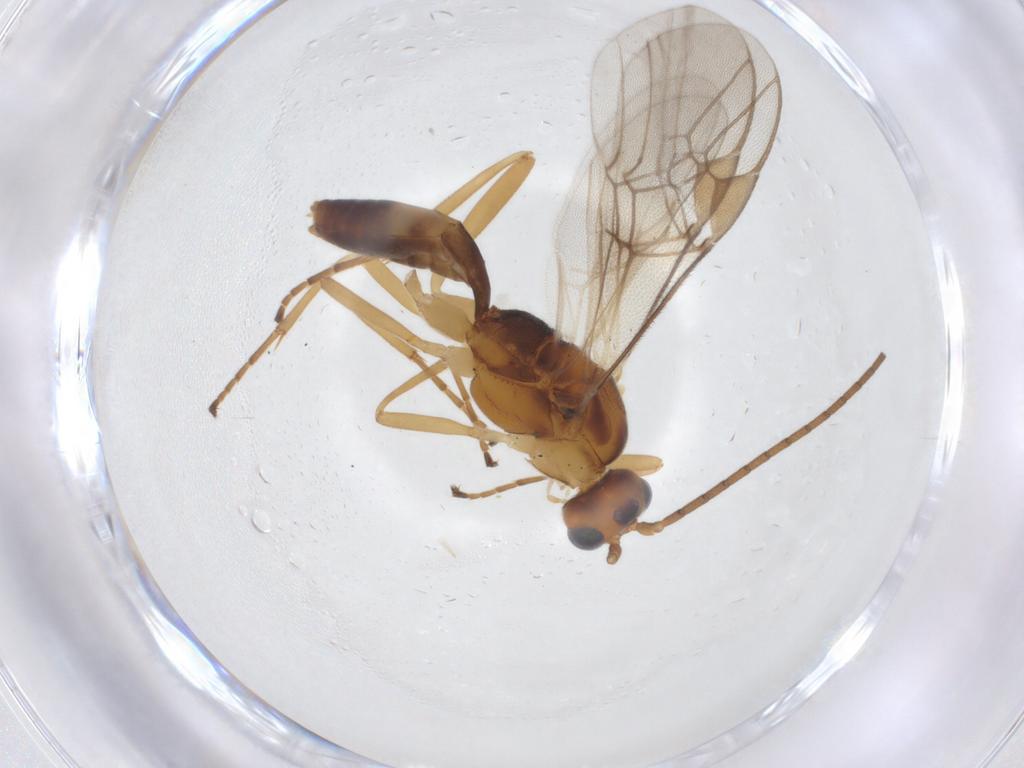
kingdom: Animalia
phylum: Arthropoda
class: Insecta
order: Hymenoptera
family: Braconidae
